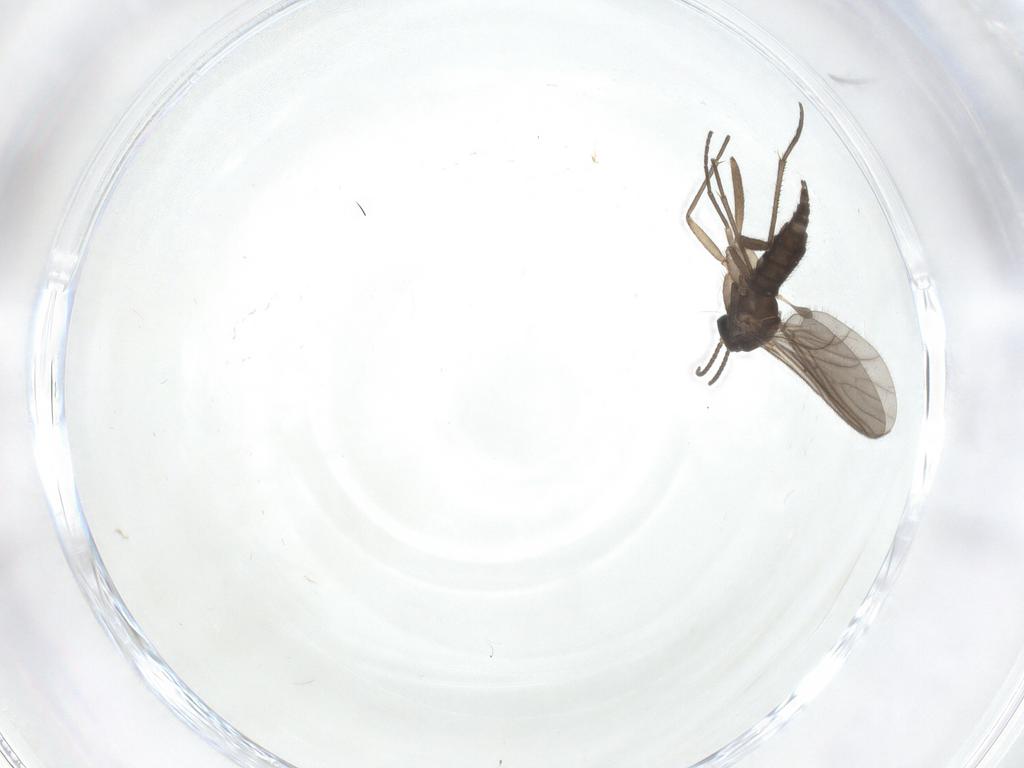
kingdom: Animalia
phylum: Arthropoda
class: Insecta
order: Diptera
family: Sciaridae
